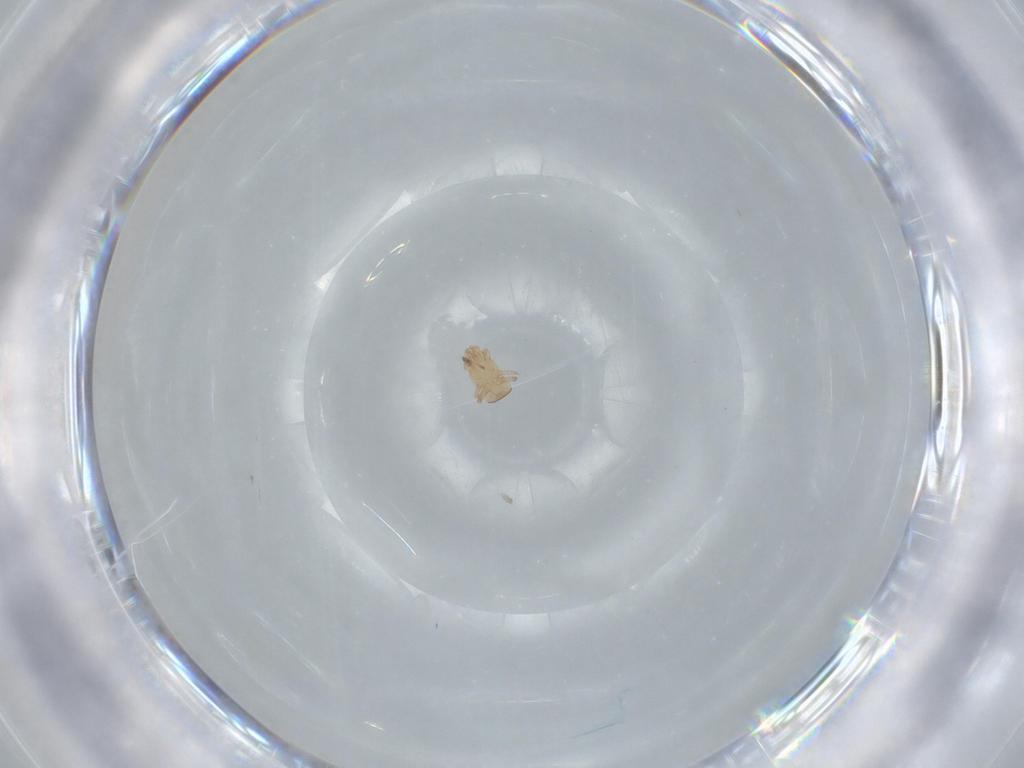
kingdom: Animalia
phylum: Arthropoda
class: Arachnida
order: Mesostigmata
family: Digamasellidae
